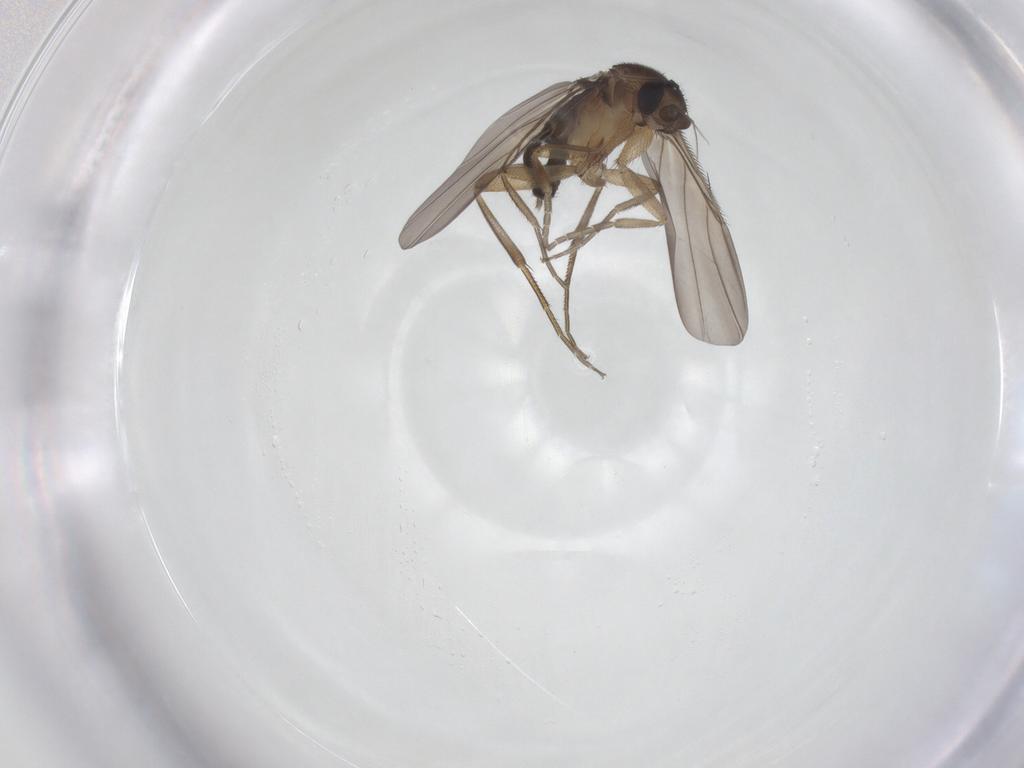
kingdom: Animalia
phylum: Arthropoda
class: Insecta
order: Diptera
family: Phoridae
